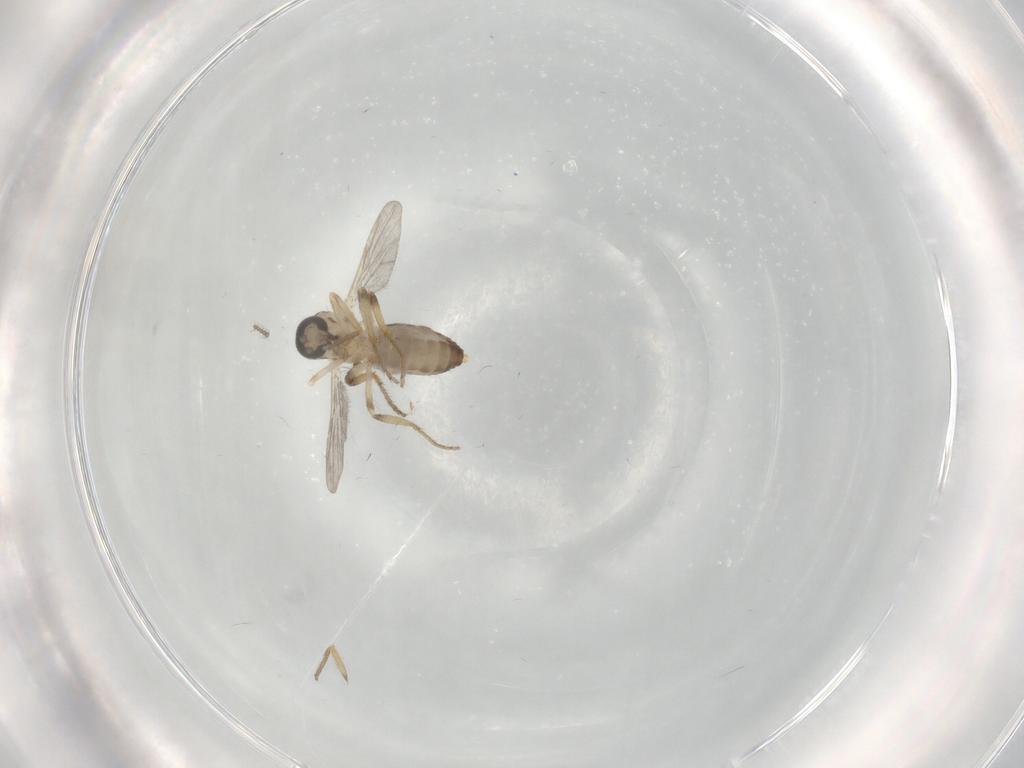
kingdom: Animalia
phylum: Arthropoda
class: Insecta
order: Diptera
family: Ceratopogonidae
